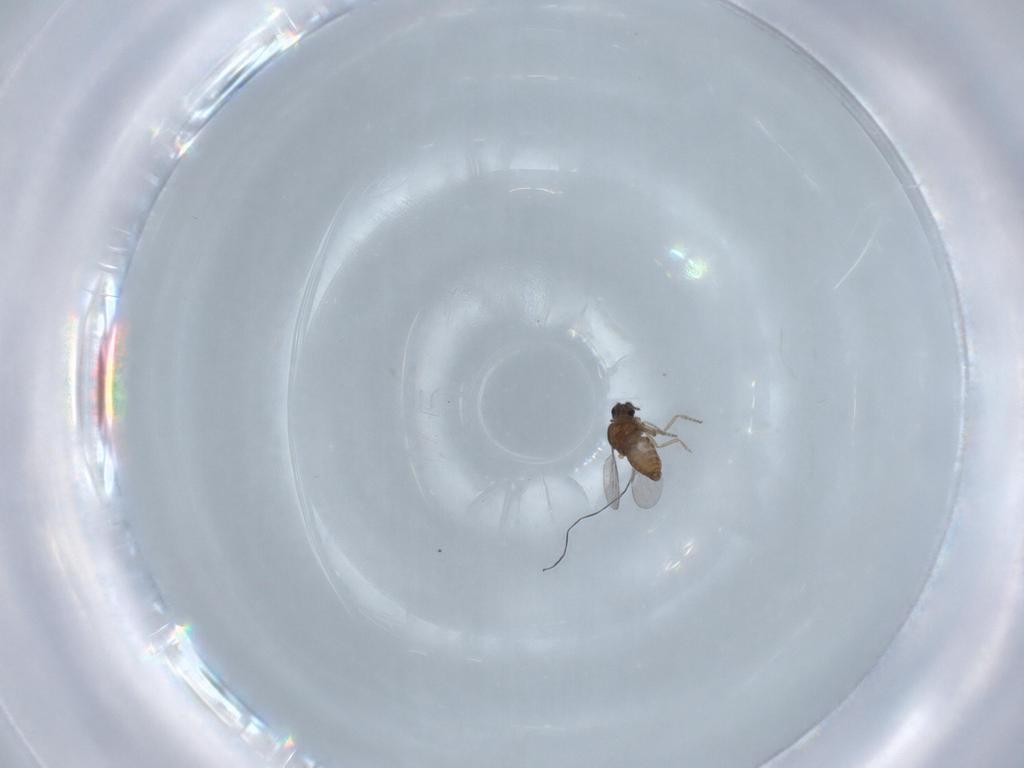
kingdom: Animalia
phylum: Arthropoda
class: Insecta
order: Diptera
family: Ceratopogonidae
